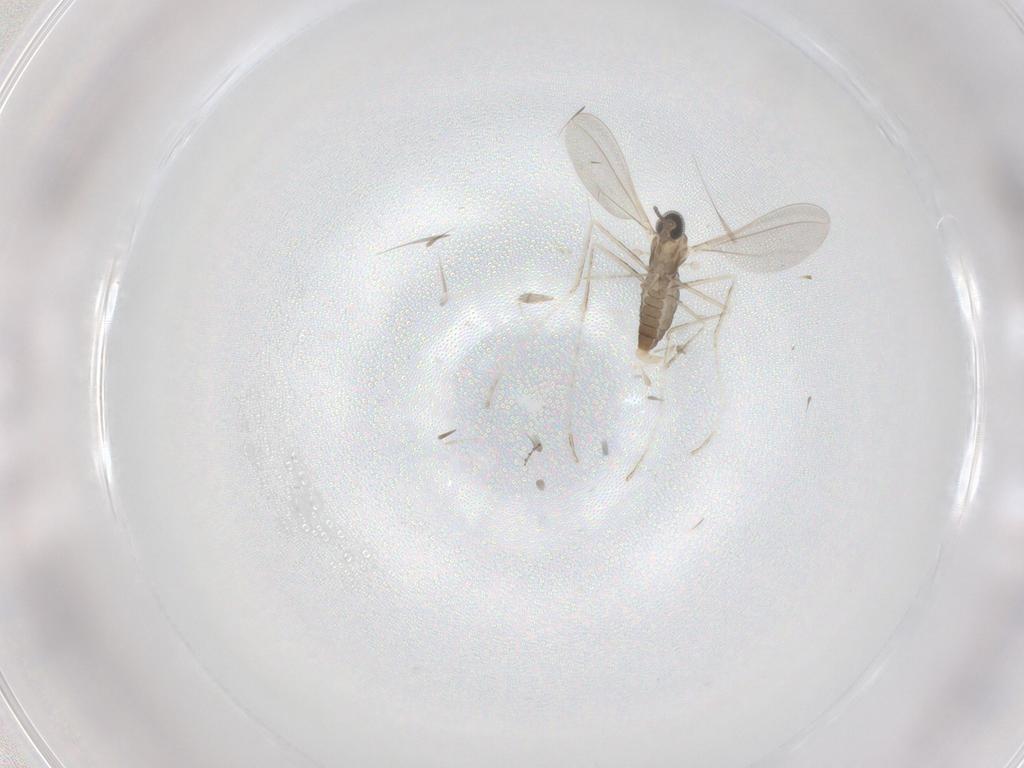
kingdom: Animalia
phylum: Arthropoda
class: Insecta
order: Diptera
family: Cecidomyiidae
